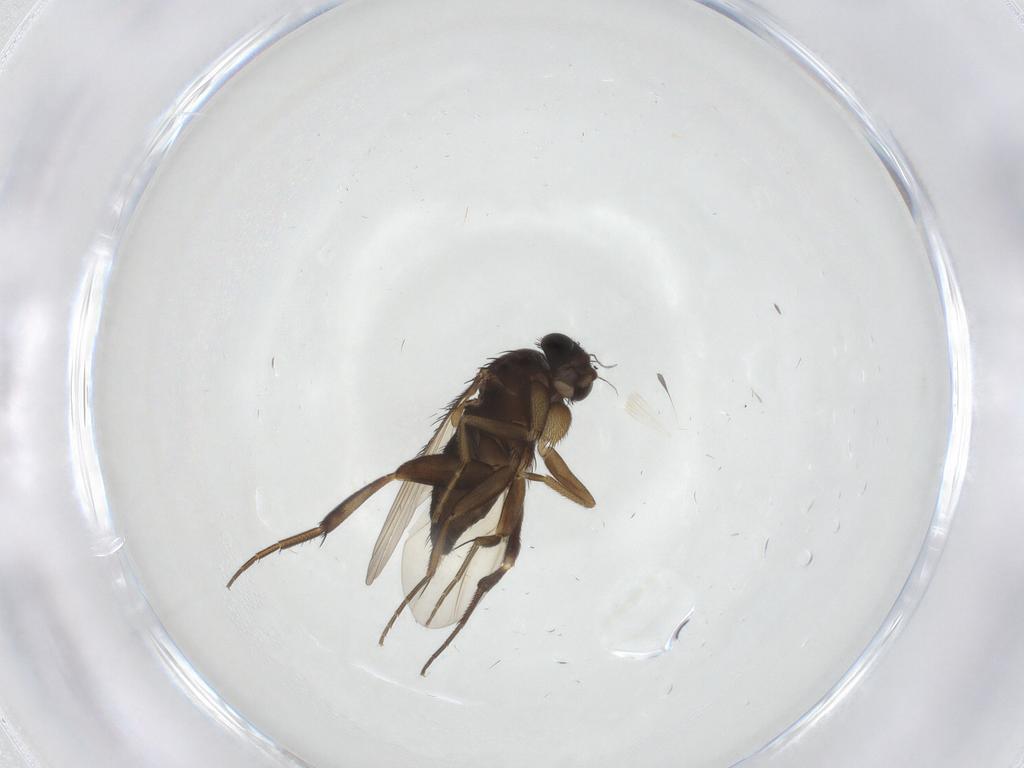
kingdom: Animalia
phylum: Arthropoda
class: Insecta
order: Diptera
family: Phoridae
